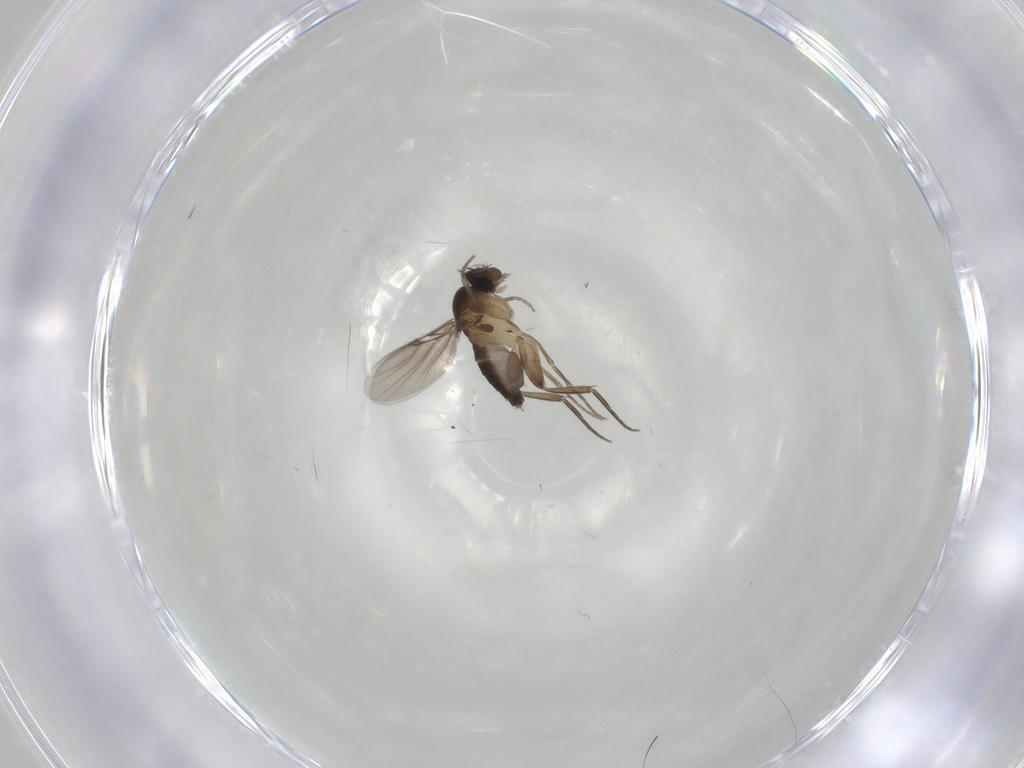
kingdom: Animalia
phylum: Arthropoda
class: Insecta
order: Diptera
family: Phoridae
